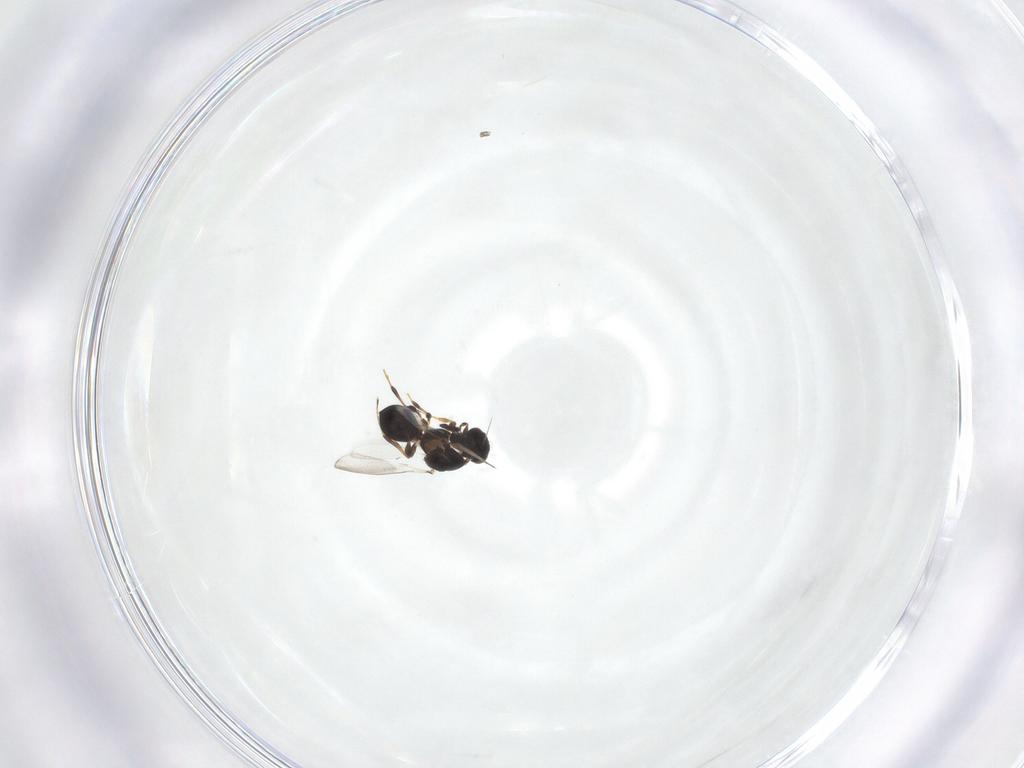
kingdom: Animalia
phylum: Arthropoda
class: Insecta
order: Hymenoptera
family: Platygastridae
